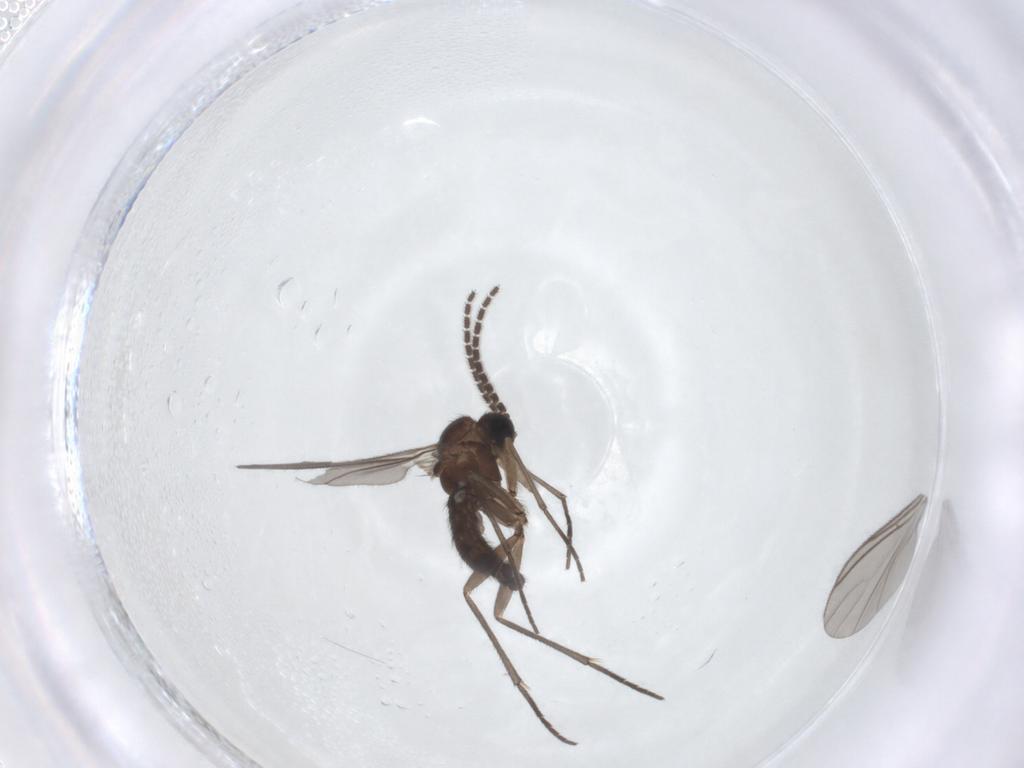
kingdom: Animalia
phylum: Arthropoda
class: Insecta
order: Diptera
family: Sciaridae
